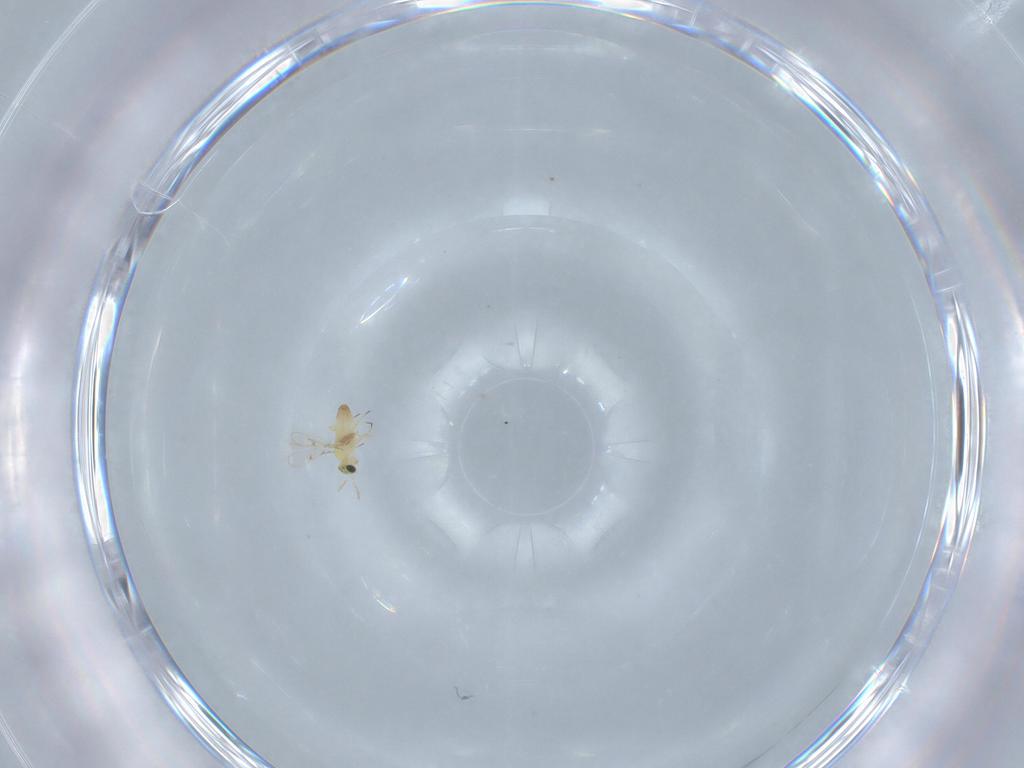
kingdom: Animalia
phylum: Arthropoda
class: Insecta
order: Hymenoptera
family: Trichogrammatidae
